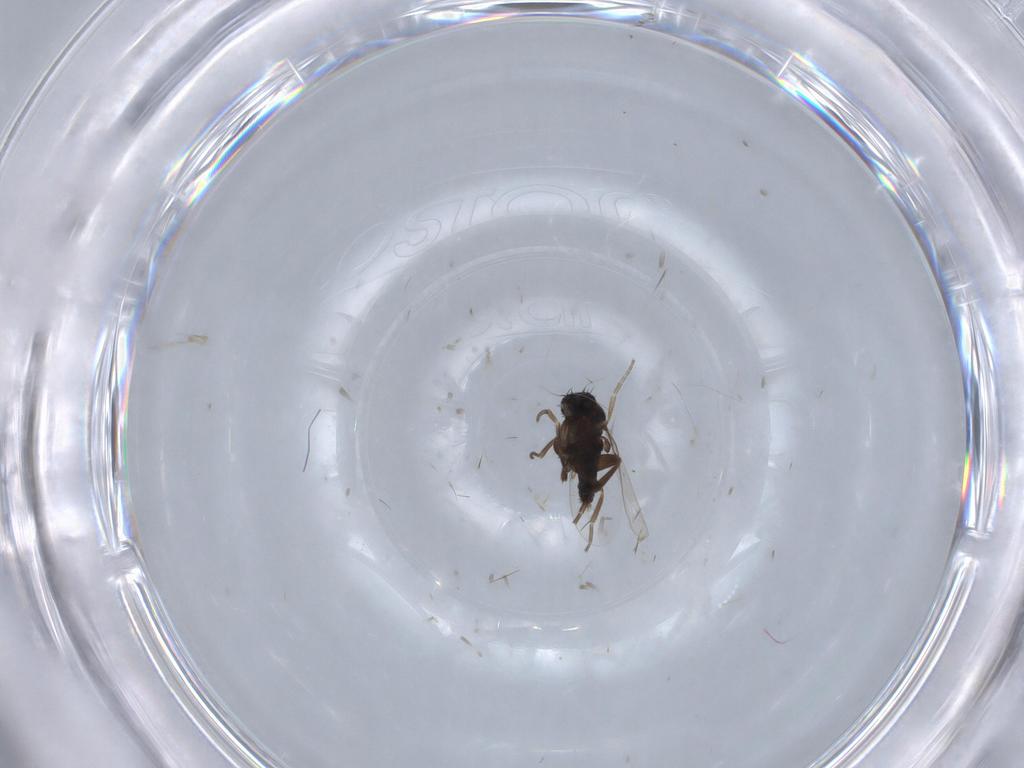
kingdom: Animalia
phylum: Arthropoda
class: Insecta
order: Diptera
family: Phoridae
